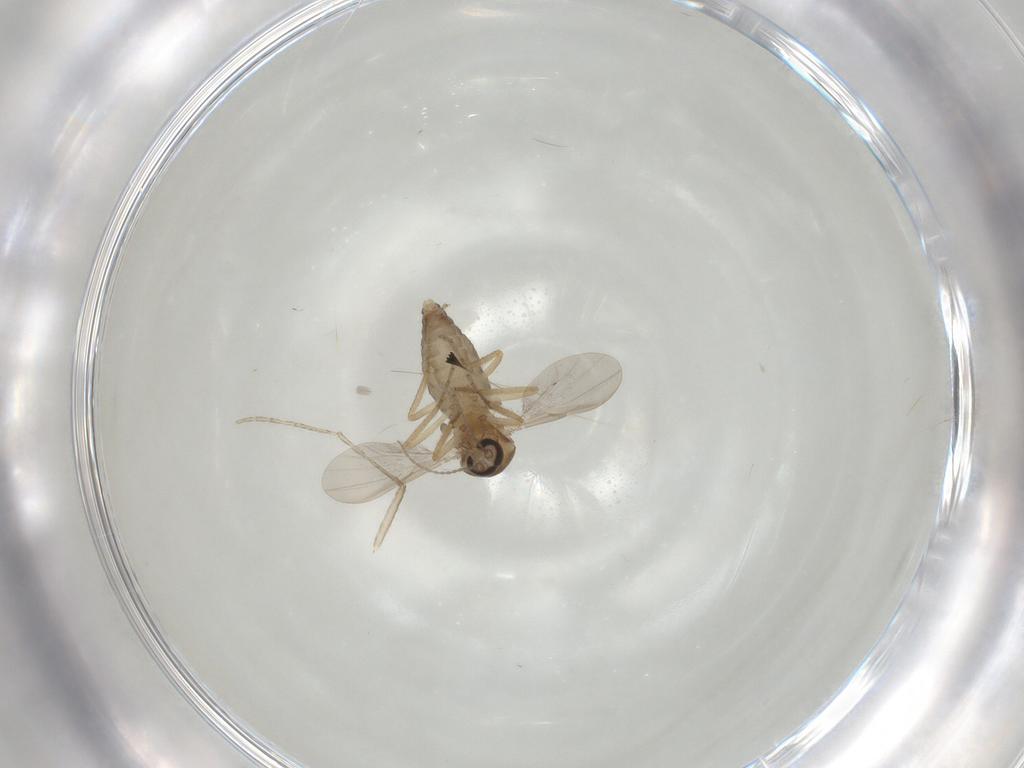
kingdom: Animalia
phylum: Arthropoda
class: Insecta
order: Diptera
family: Ceratopogonidae
